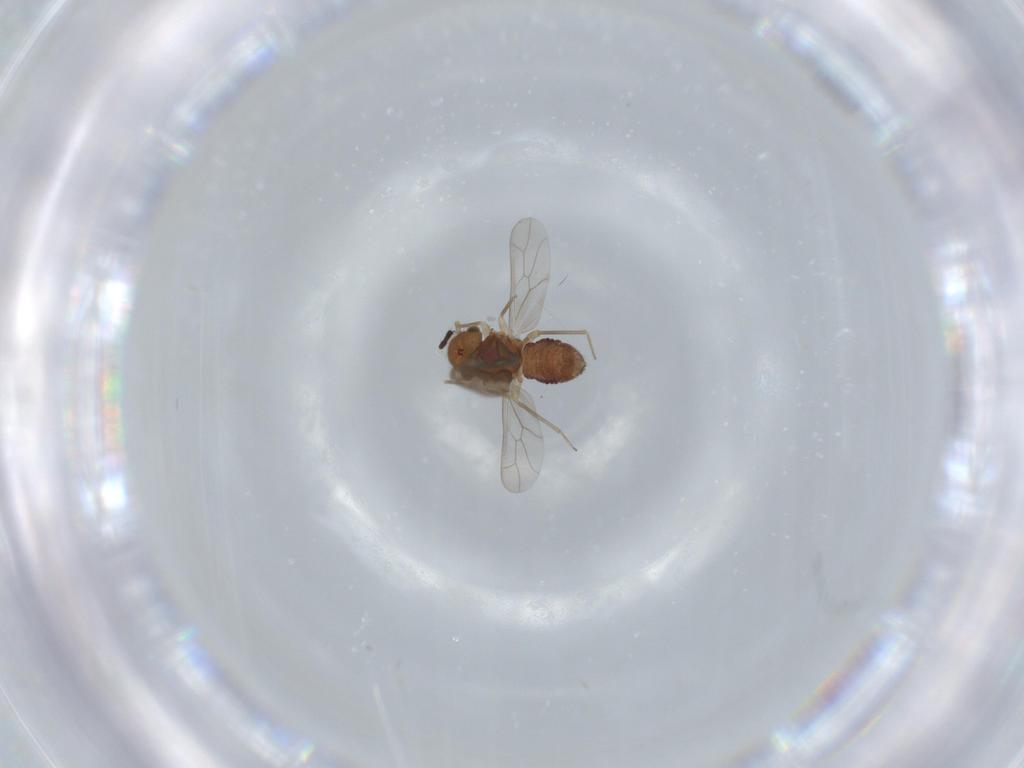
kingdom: Animalia
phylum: Arthropoda
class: Insecta
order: Psocodea
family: Ectopsocidae
